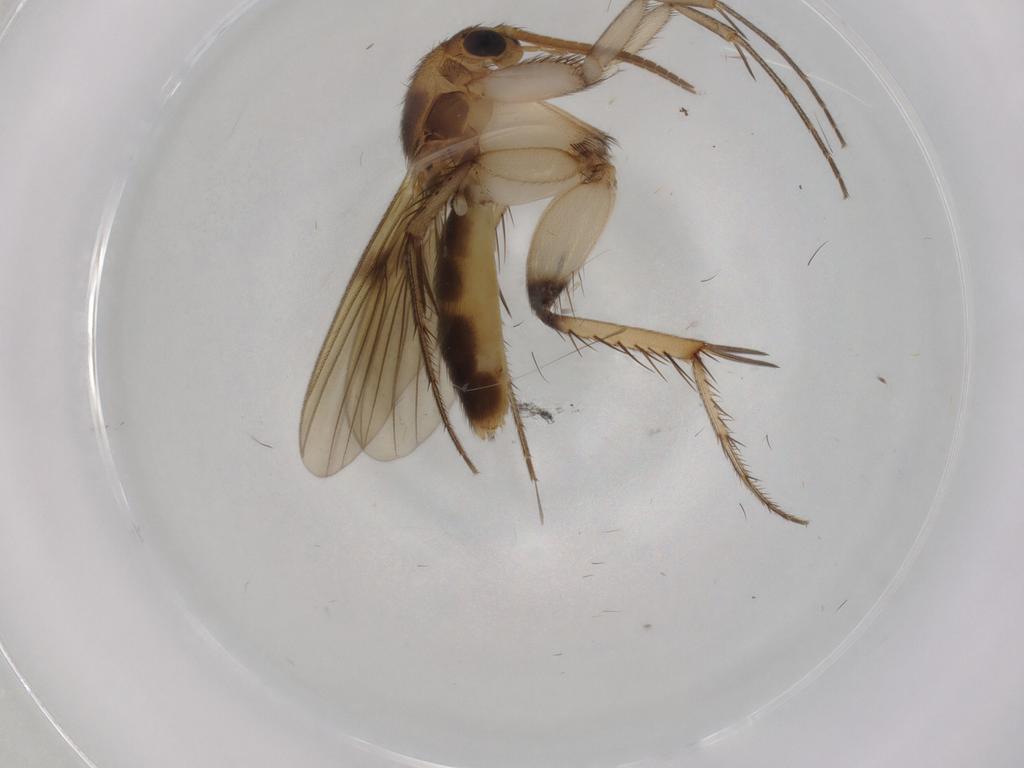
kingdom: Animalia
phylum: Arthropoda
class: Insecta
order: Diptera
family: Mycetophilidae
